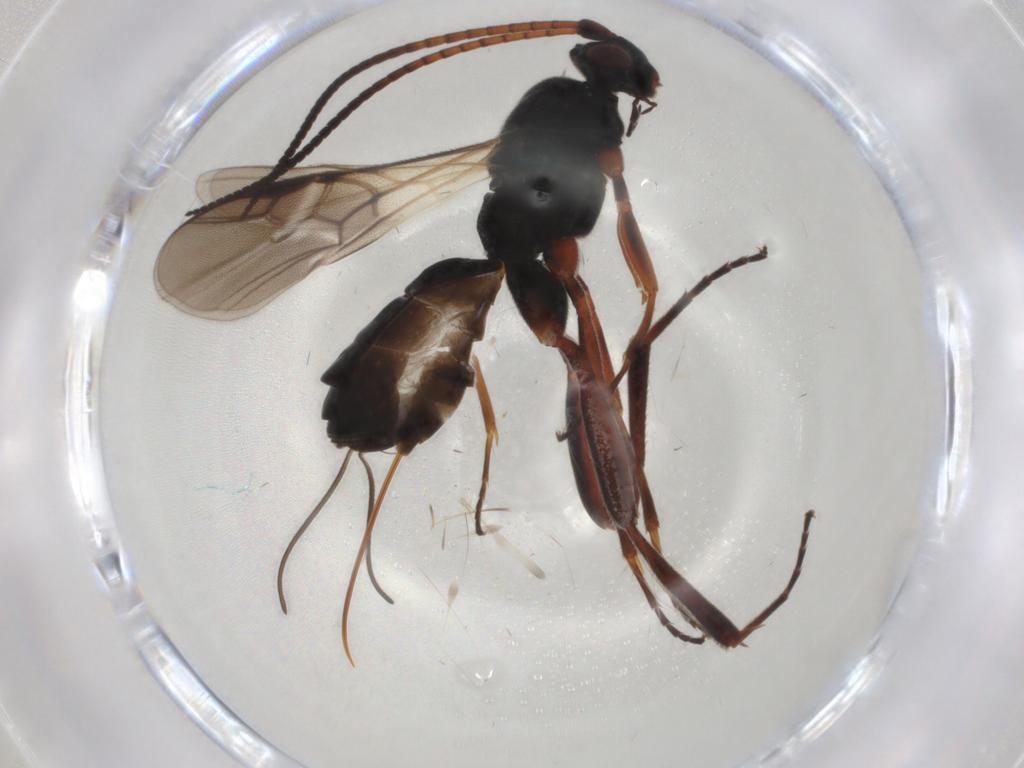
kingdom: Animalia
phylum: Arthropoda
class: Insecta
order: Hymenoptera
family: Braconidae
